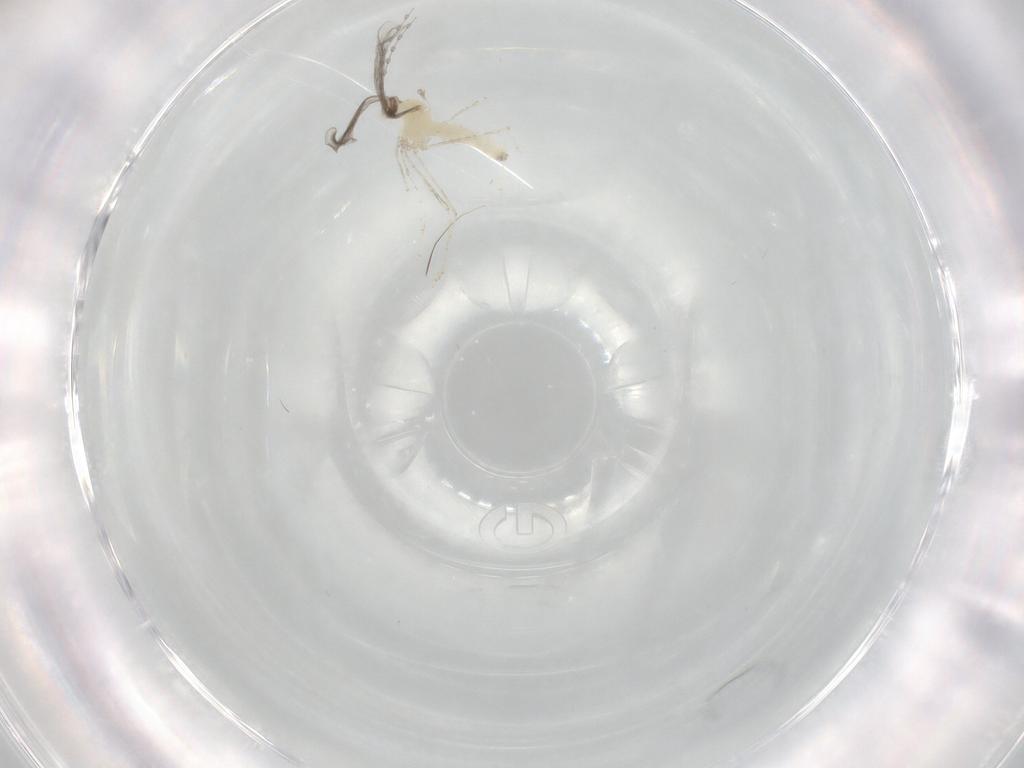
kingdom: Animalia
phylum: Arthropoda
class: Insecta
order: Diptera
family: Cecidomyiidae
